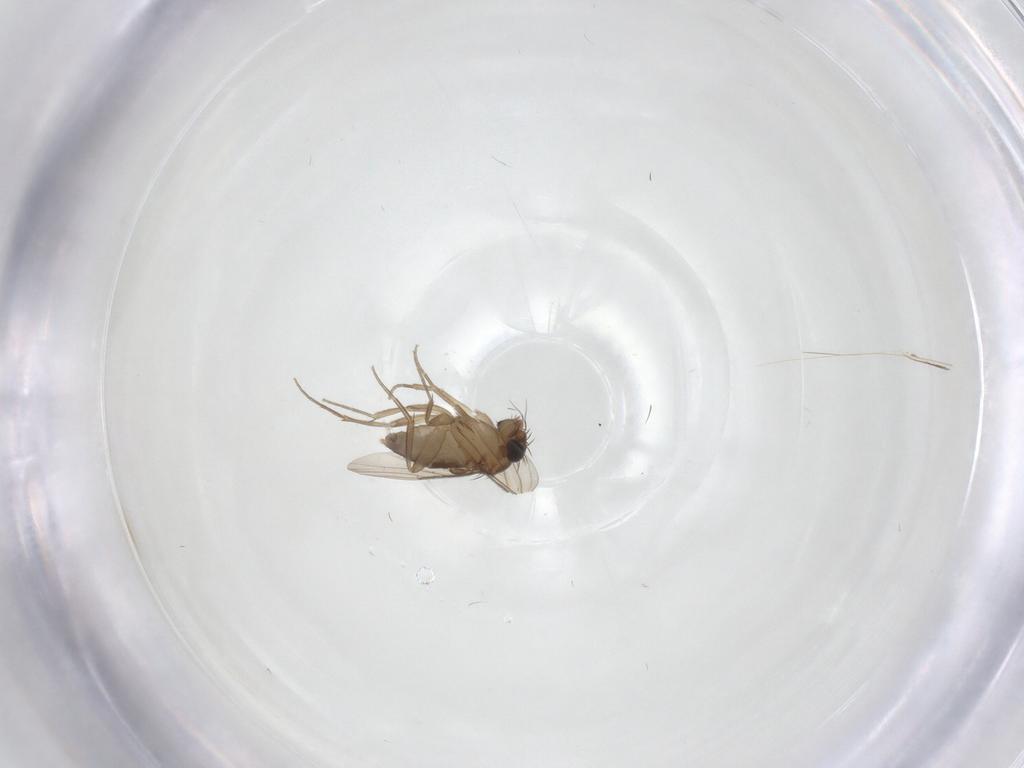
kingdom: Animalia
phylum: Arthropoda
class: Insecta
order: Diptera
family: Phoridae
